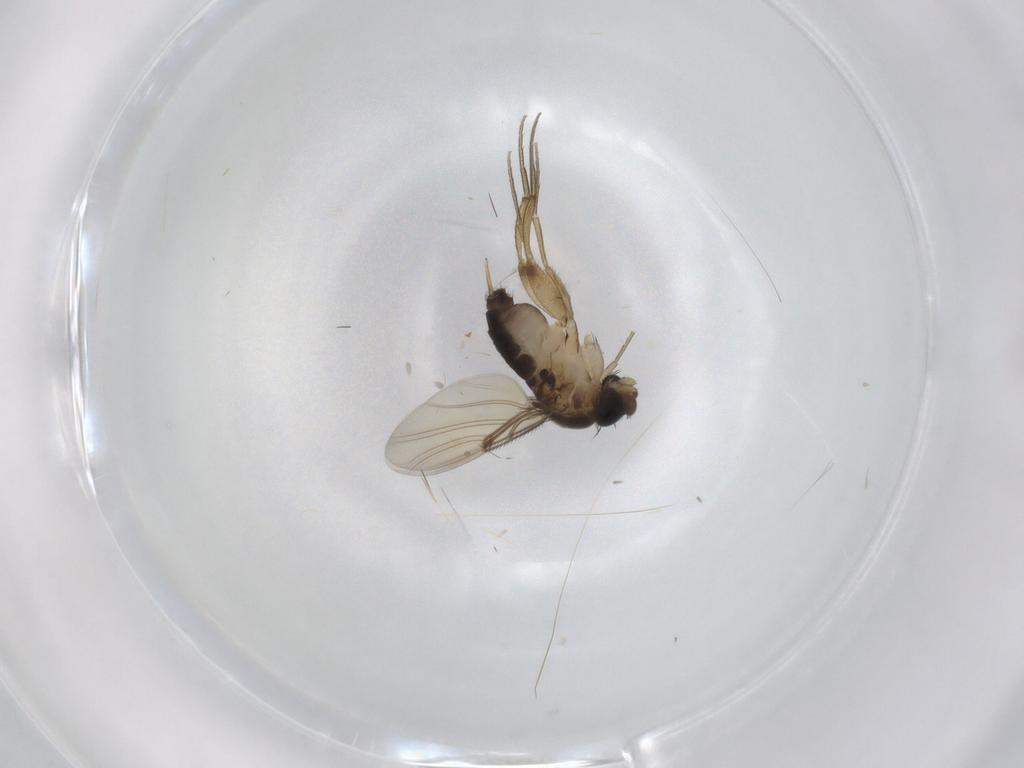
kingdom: Animalia
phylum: Arthropoda
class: Insecta
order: Diptera
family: Phoridae
